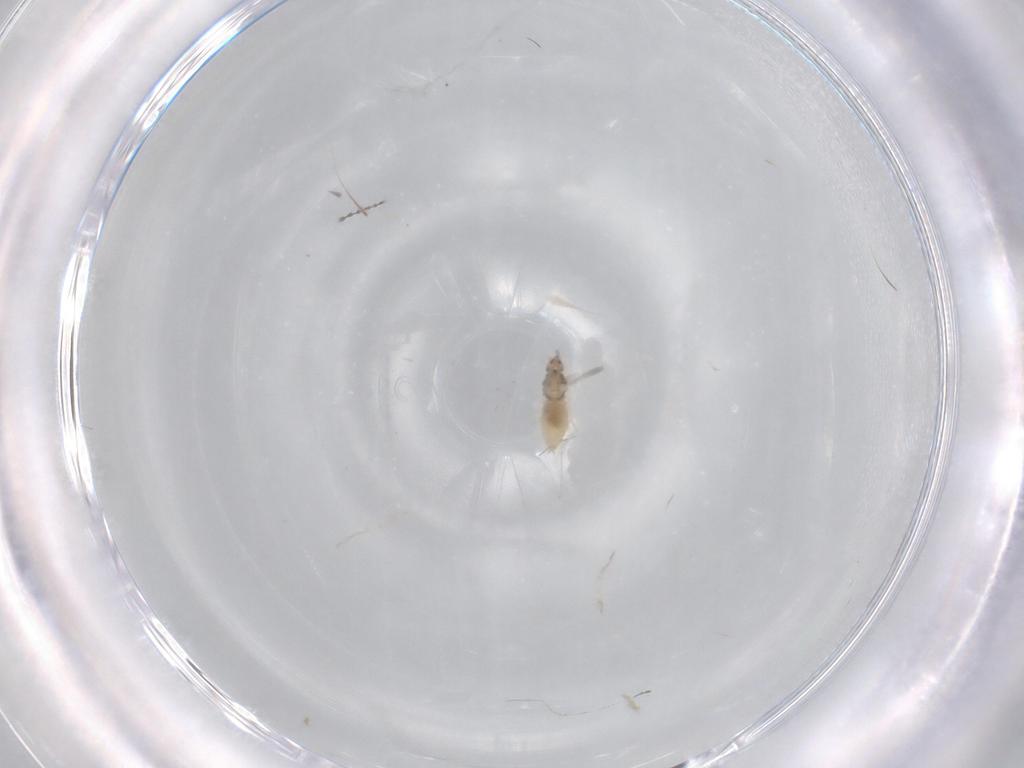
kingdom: Animalia
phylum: Arthropoda
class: Insecta
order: Diptera
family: Cecidomyiidae
